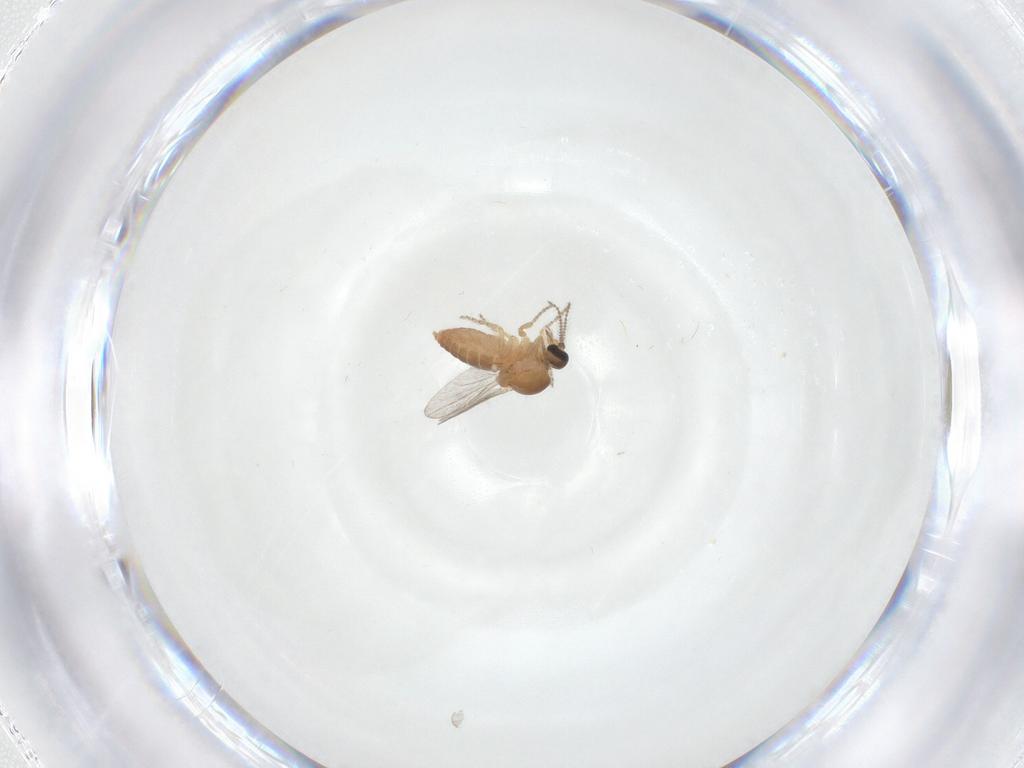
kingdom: Animalia
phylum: Arthropoda
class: Insecta
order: Diptera
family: Ceratopogonidae
